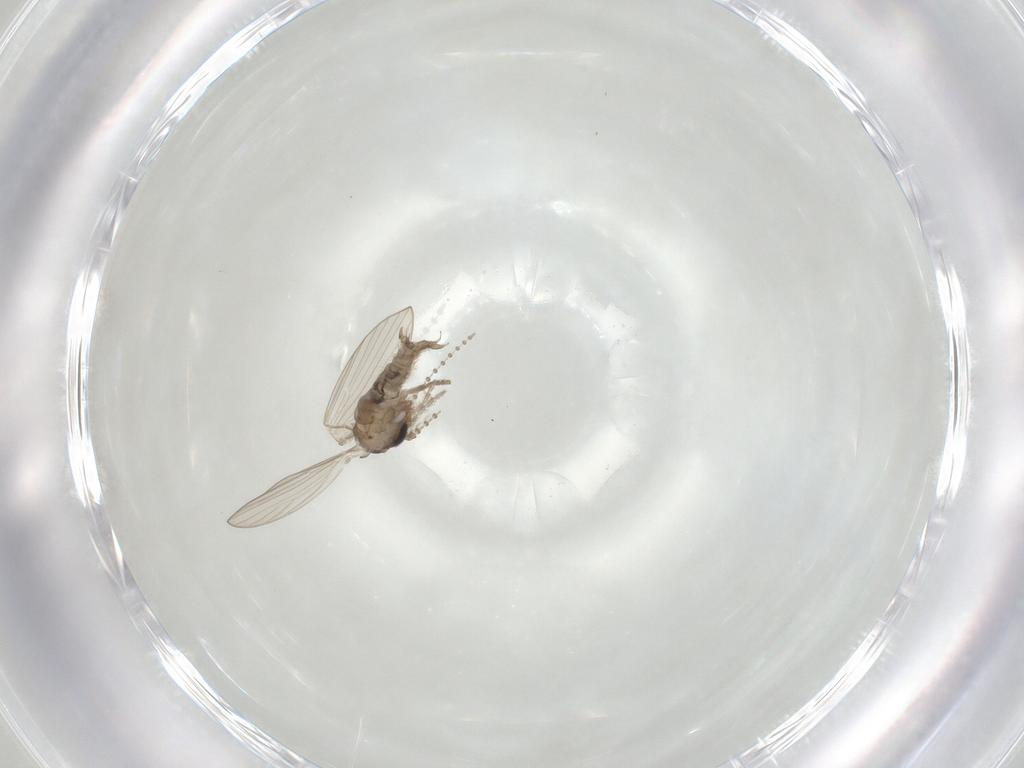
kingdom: Animalia
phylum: Arthropoda
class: Insecta
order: Diptera
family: Psychodidae
